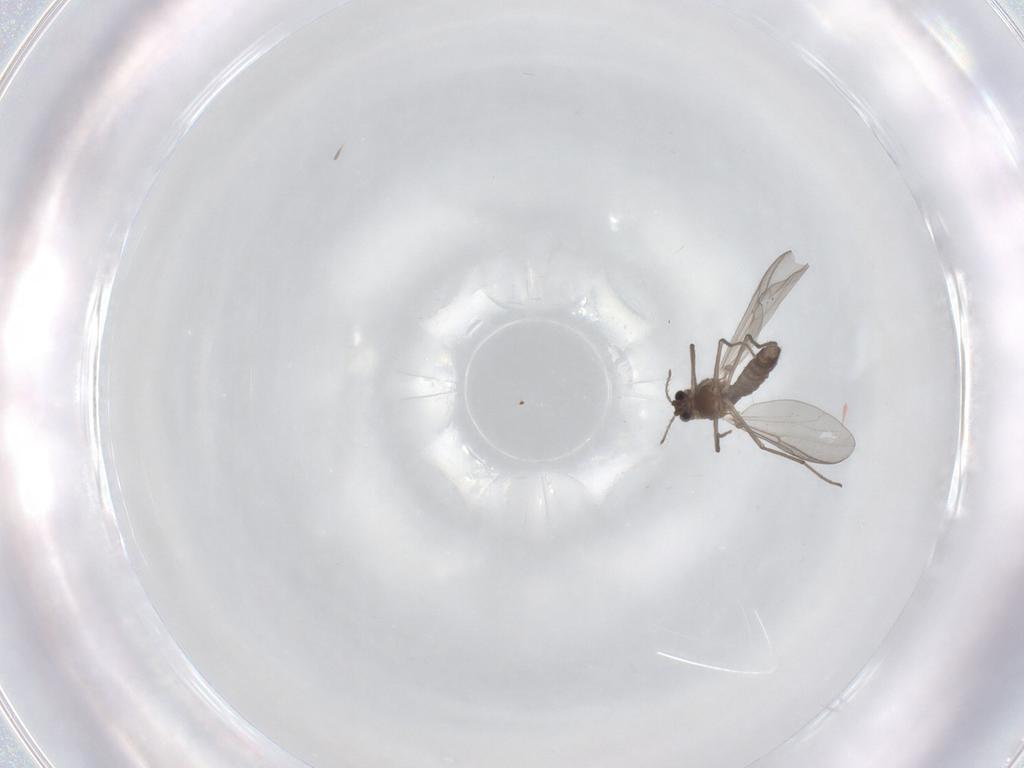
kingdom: Animalia
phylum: Arthropoda
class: Insecta
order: Diptera
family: Chironomidae
